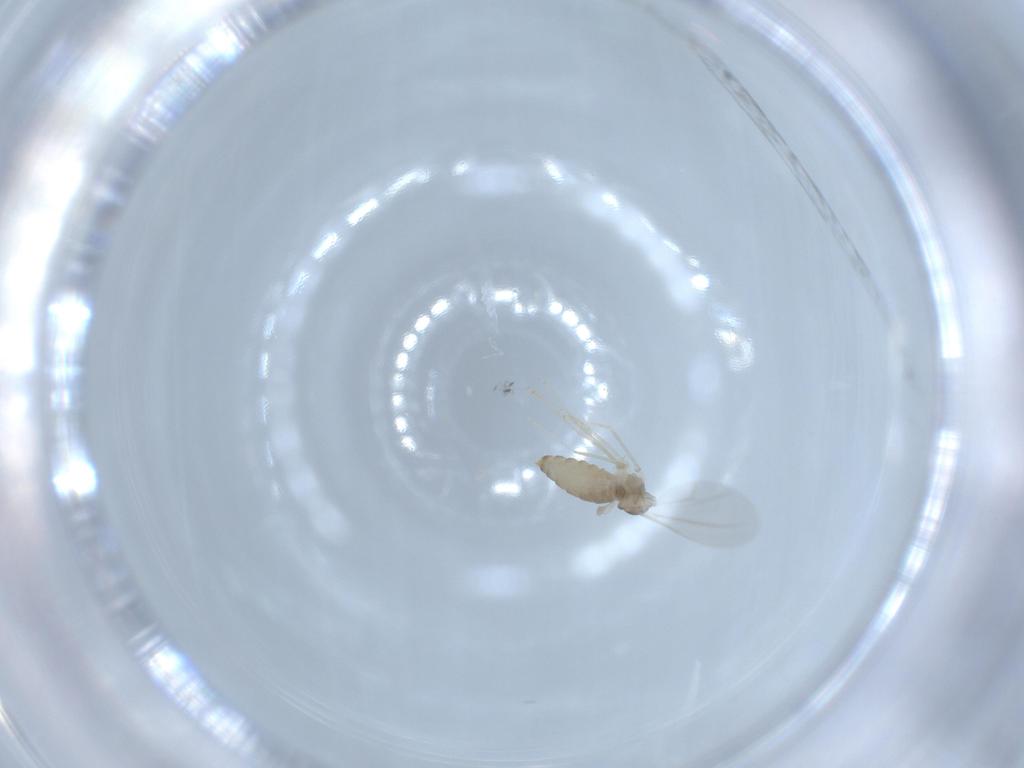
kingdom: Animalia
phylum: Arthropoda
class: Insecta
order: Diptera
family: Cecidomyiidae
